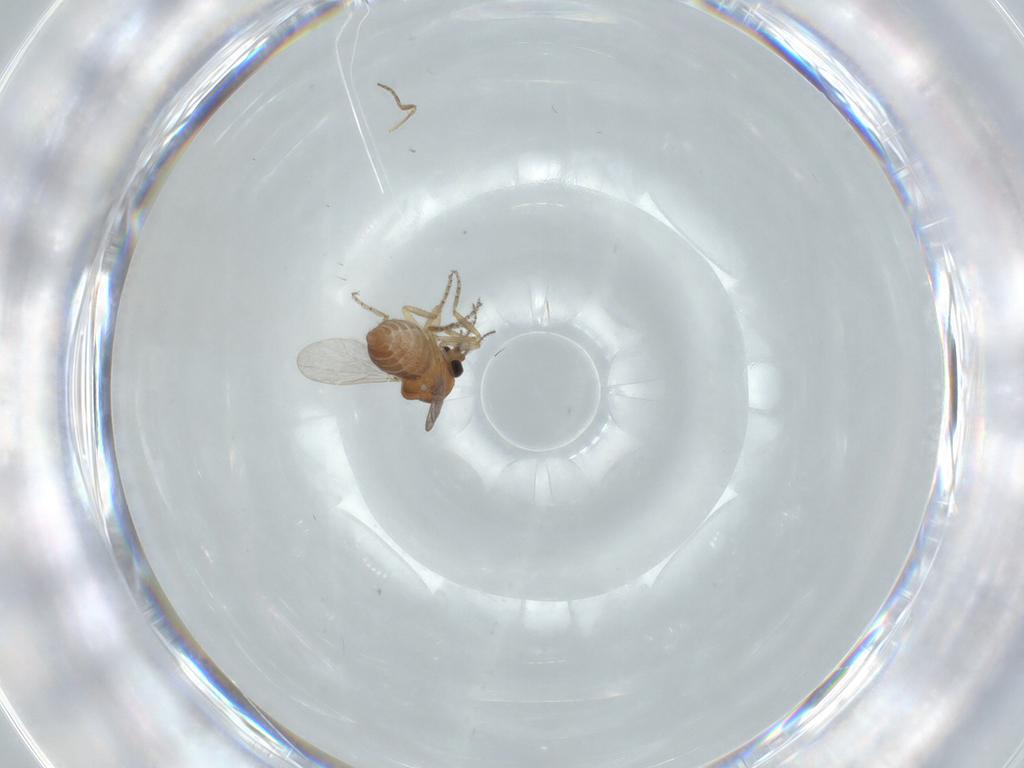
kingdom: Animalia
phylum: Arthropoda
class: Insecta
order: Diptera
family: Ceratopogonidae
